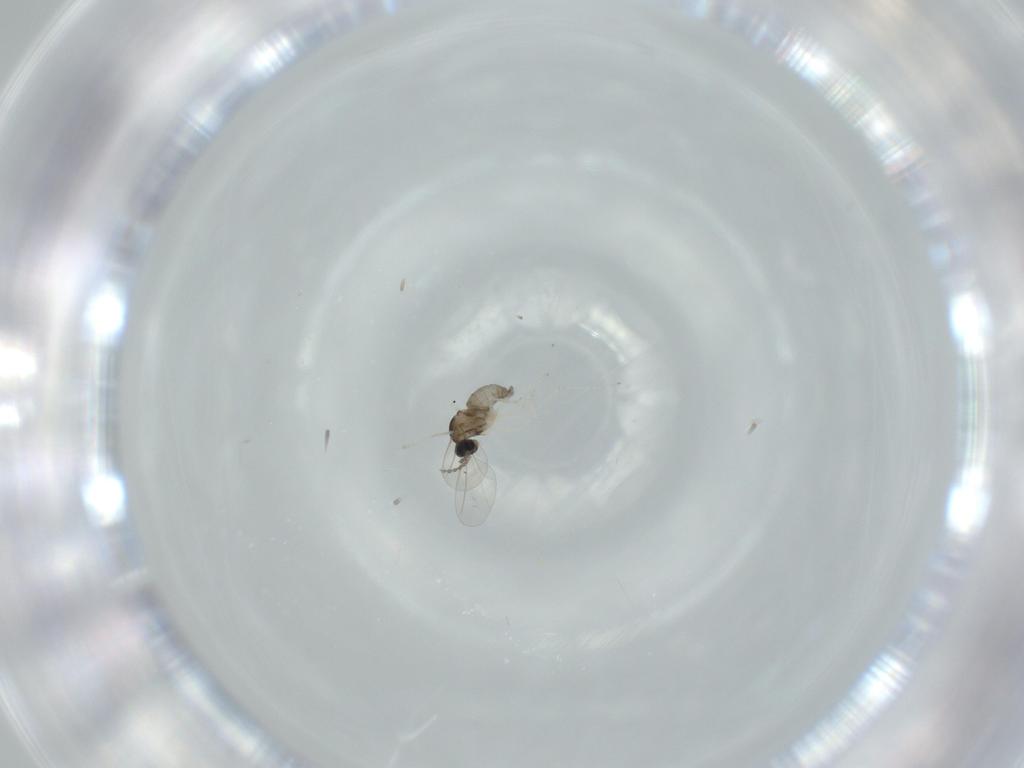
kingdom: Animalia
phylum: Arthropoda
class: Insecta
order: Diptera
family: Cecidomyiidae
